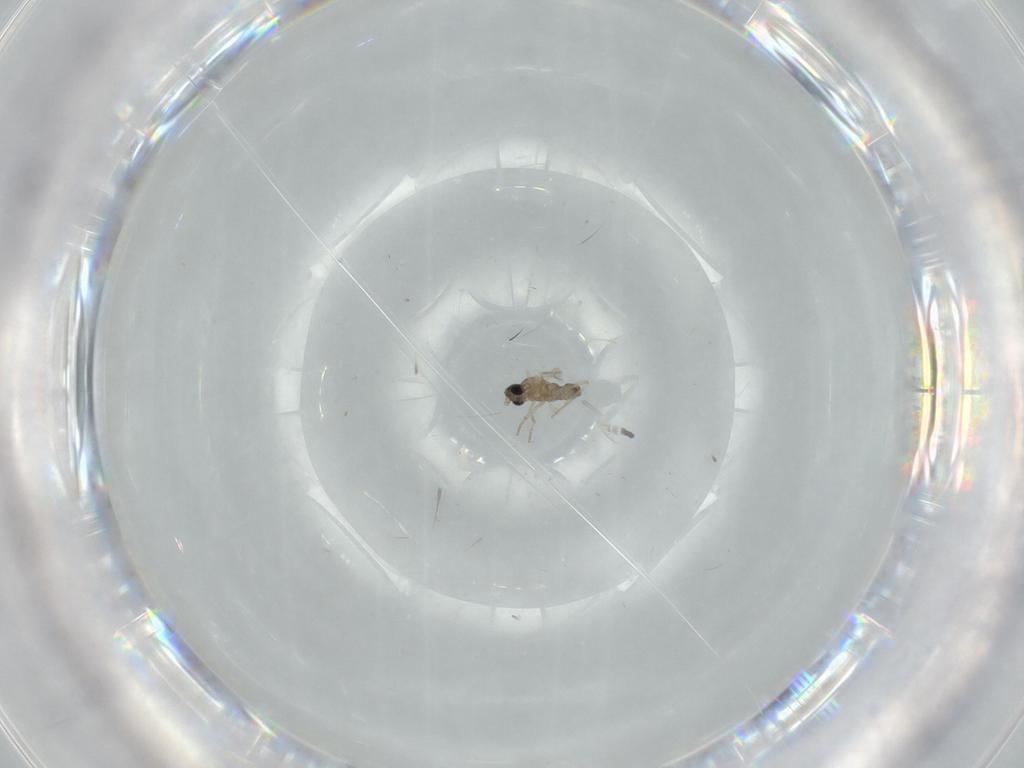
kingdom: Animalia
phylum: Arthropoda
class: Insecta
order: Diptera
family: Cecidomyiidae
